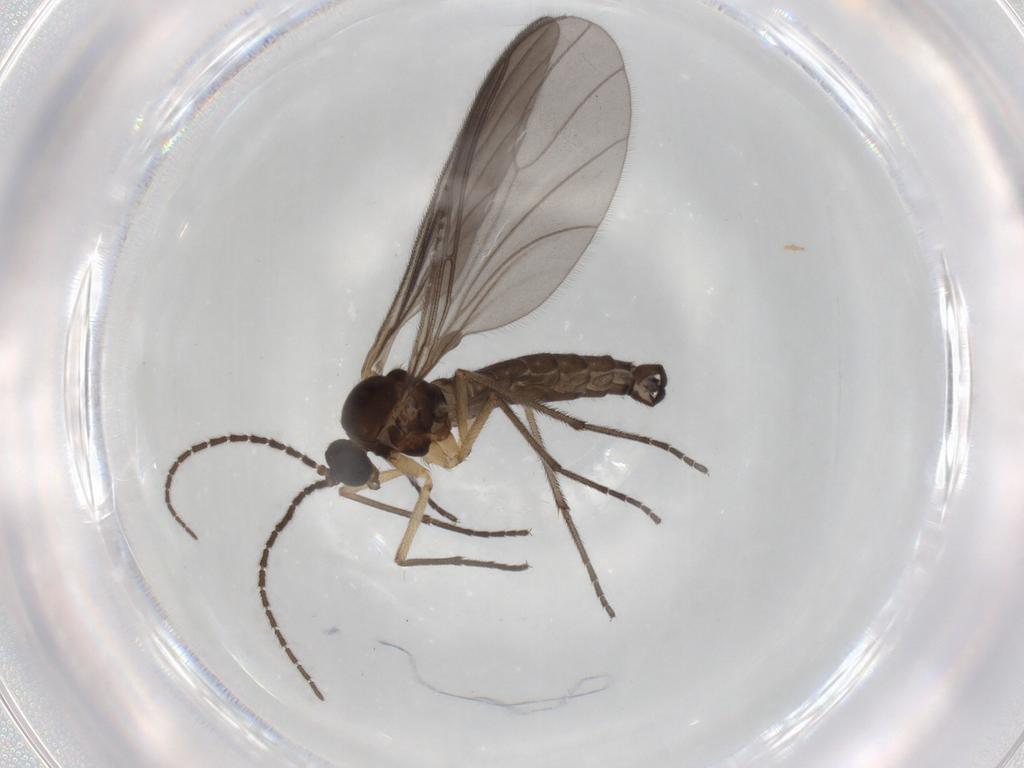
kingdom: Animalia
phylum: Arthropoda
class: Insecta
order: Diptera
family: Sciaridae
